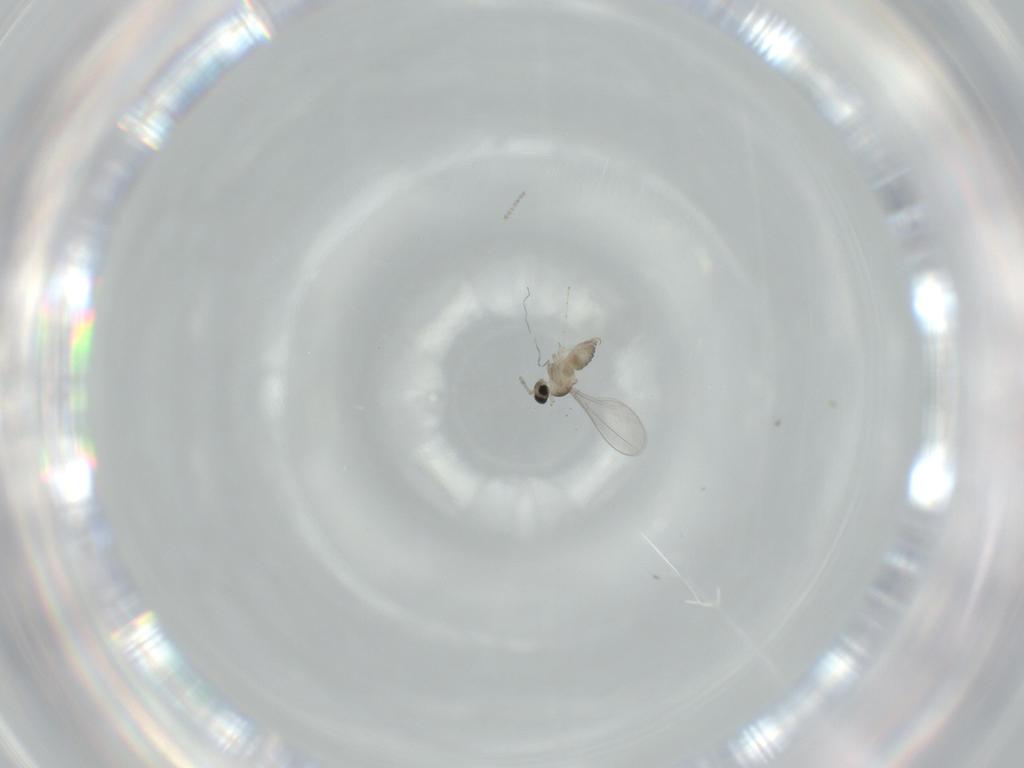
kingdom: Animalia
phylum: Arthropoda
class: Insecta
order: Diptera
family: Cecidomyiidae
